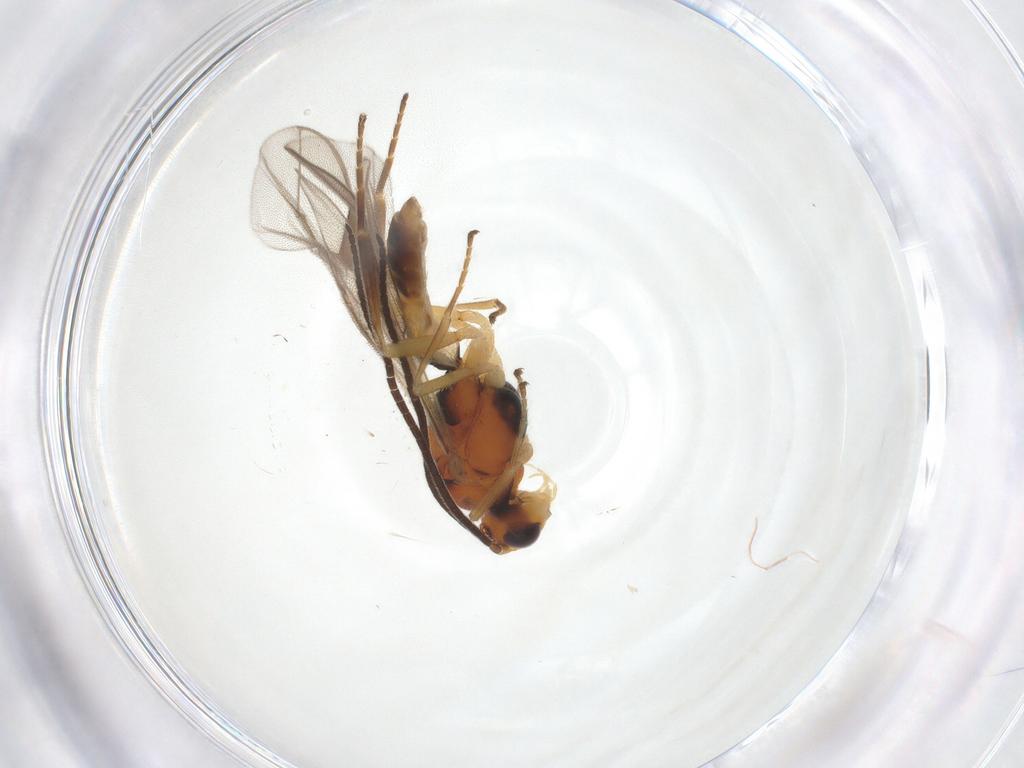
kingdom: Animalia
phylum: Arthropoda
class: Insecta
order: Hymenoptera
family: Braconidae
